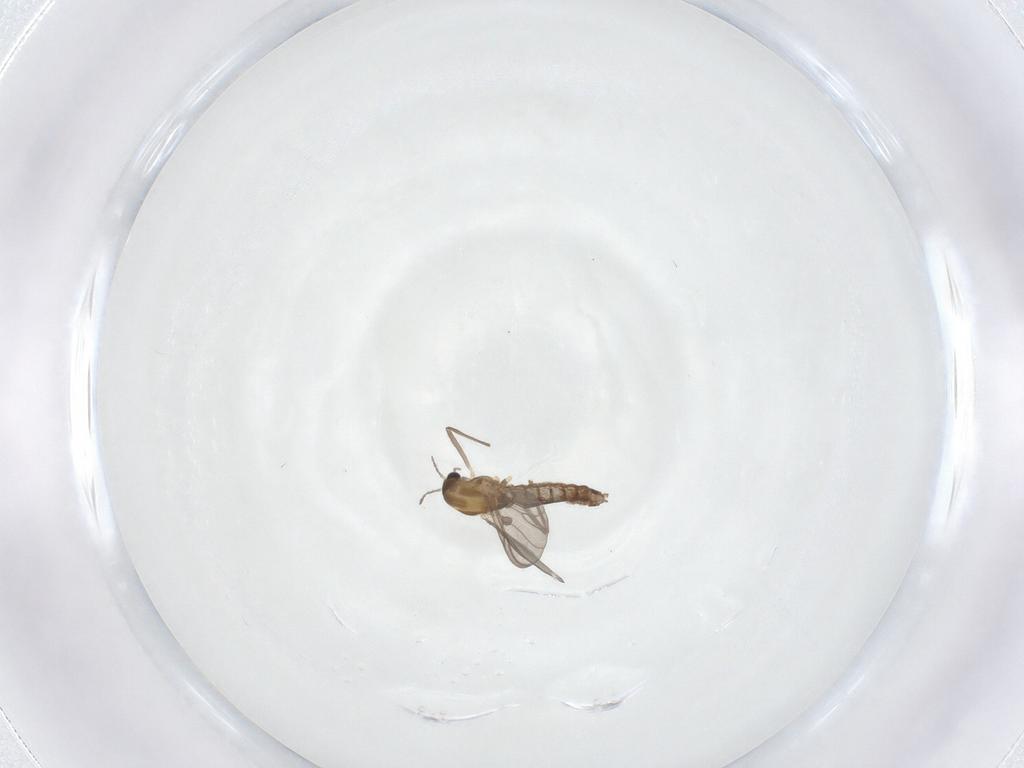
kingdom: Animalia
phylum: Arthropoda
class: Insecta
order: Diptera
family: Chironomidae
